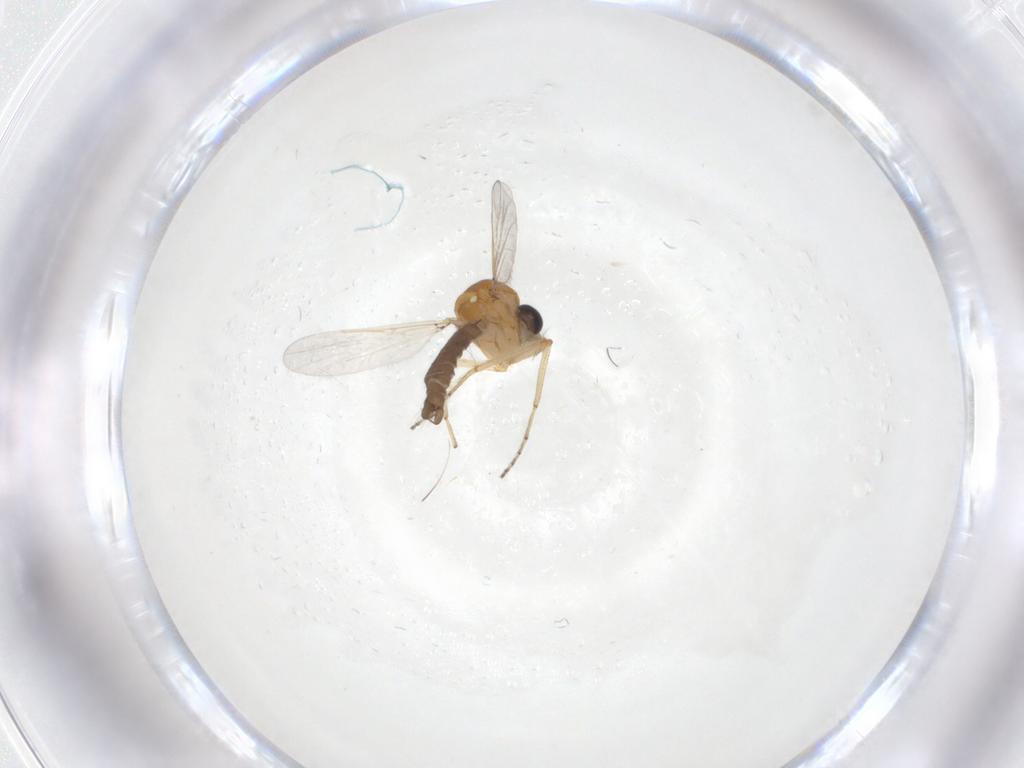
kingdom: Animalia
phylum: Arthropoda
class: Insecta
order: Diptera
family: Ceratopogonidae
